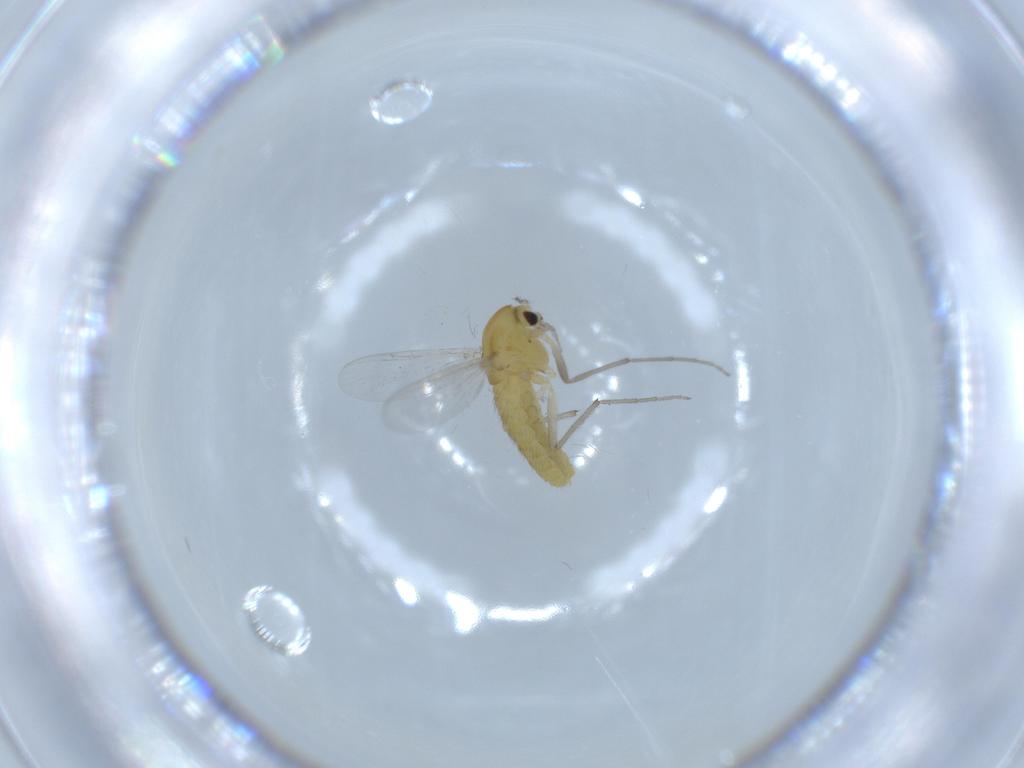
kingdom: Animalia
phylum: Arthropoda
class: Insecta
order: Diptera
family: Chironomidae
